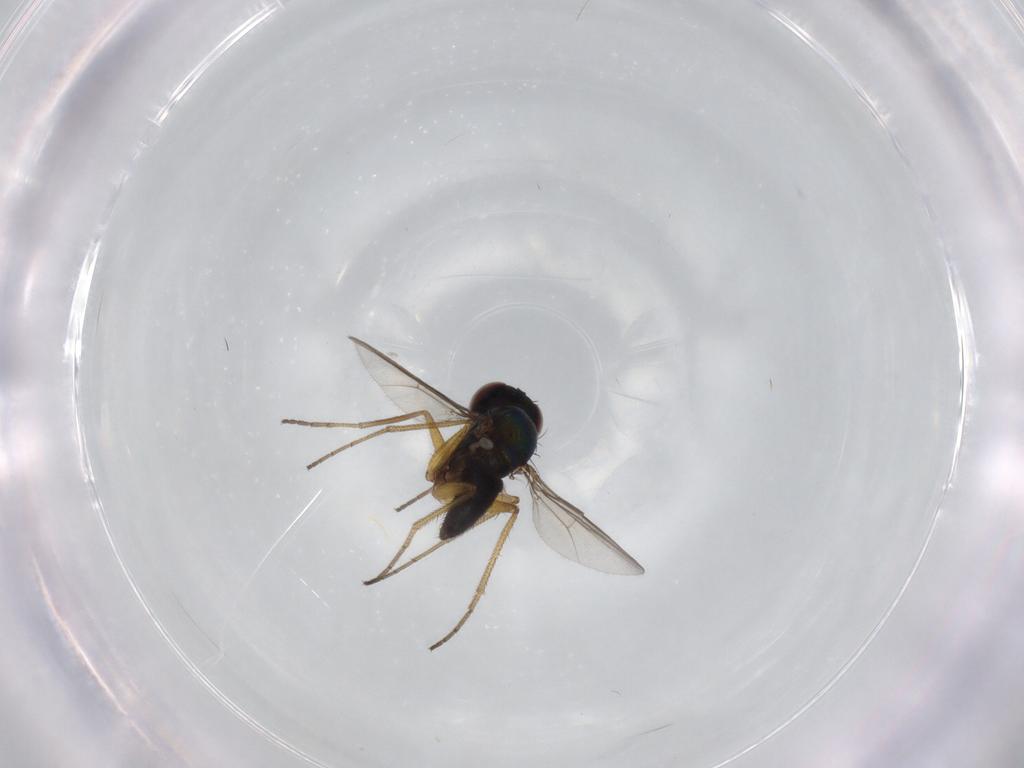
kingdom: Animalia
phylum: Arthropoda
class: Insecta
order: Diptera
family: Dolichopodidae
